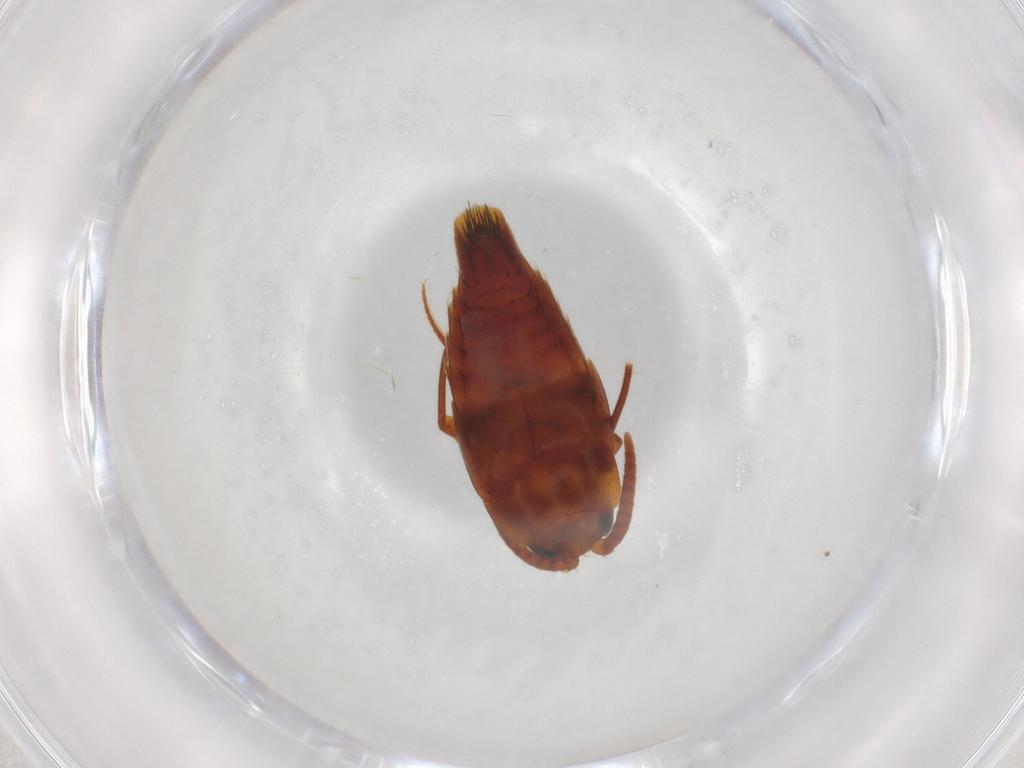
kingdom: Animalia
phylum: Arthropoda
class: Insecta
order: Coleoptera
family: Staphylinidae
